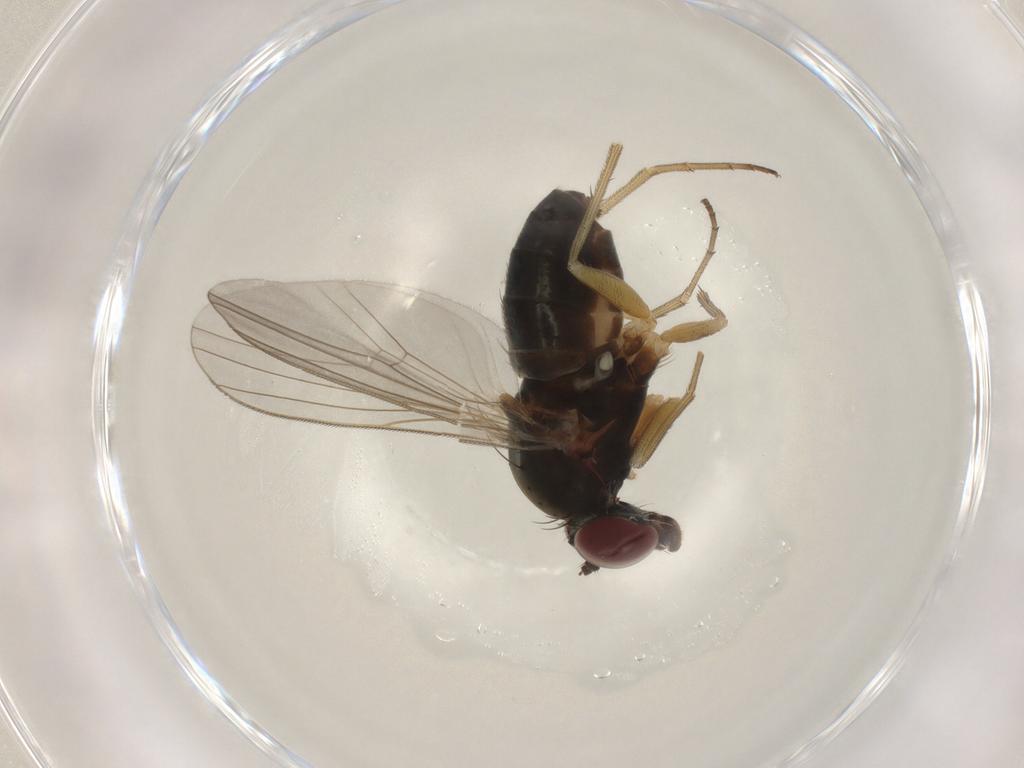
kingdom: Animalia
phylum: Arthropoda
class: Insecta
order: Diptera
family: Dolichopodidae
